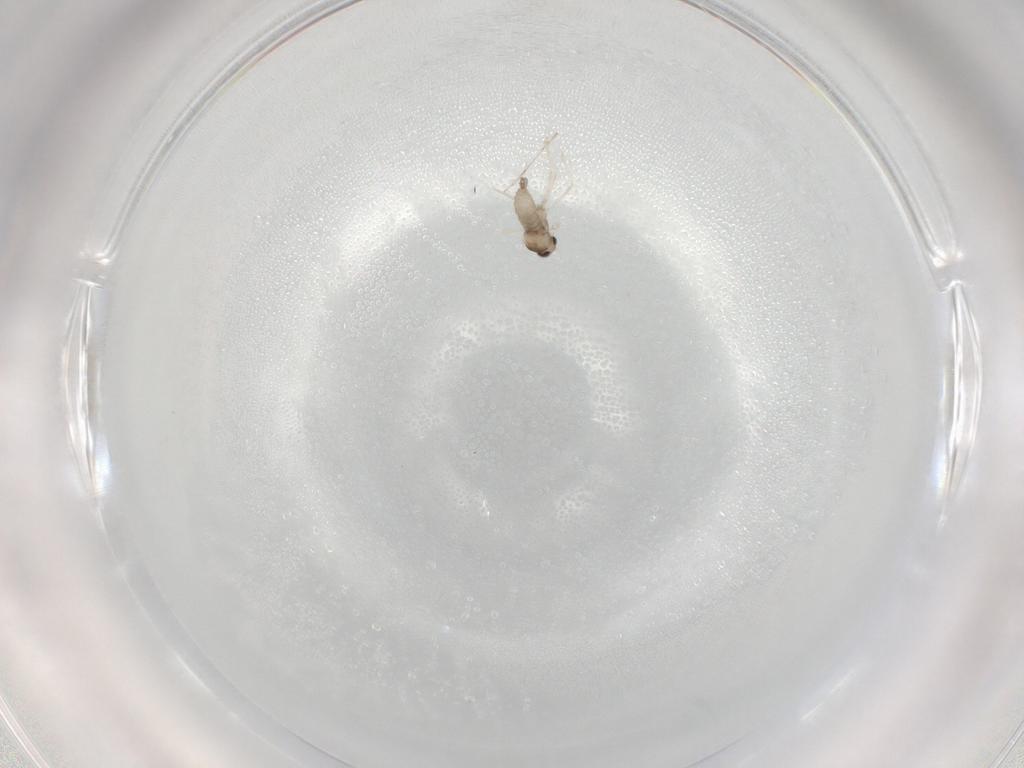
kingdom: Animalia
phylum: Arthropoda
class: Insecta
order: Diptera
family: Cecidomyiidae
